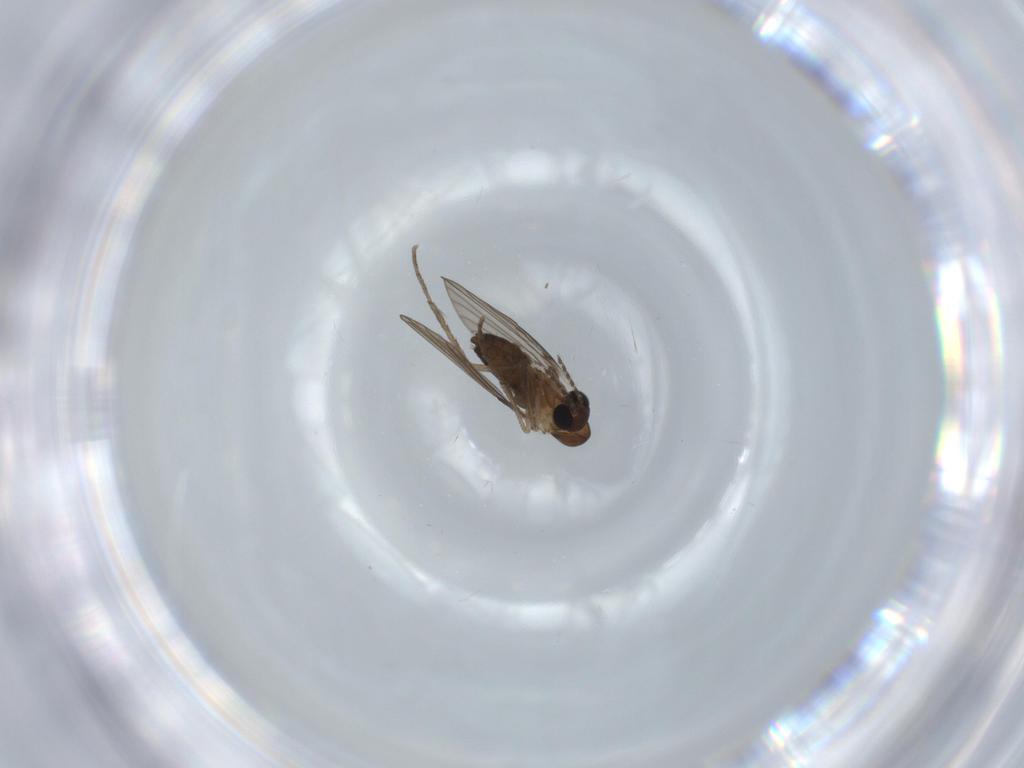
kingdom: Animalia
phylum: Arthropoda
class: Insecta
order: Diptera
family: Psychodidae
